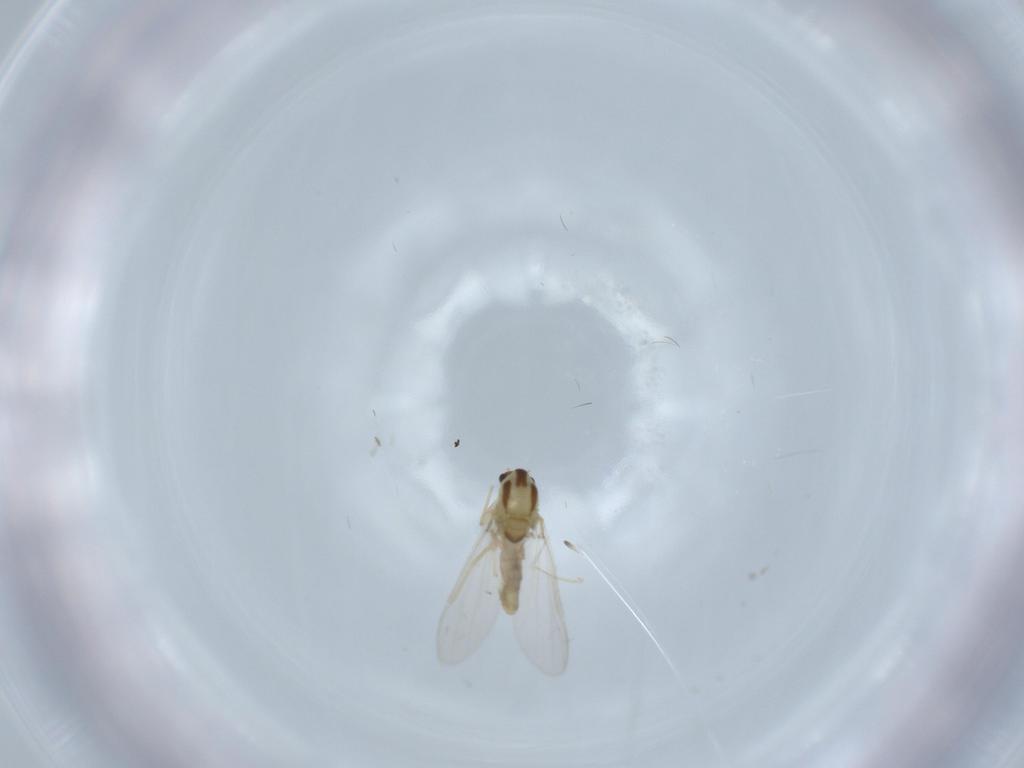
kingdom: Animalia
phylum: Arthropoda
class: Insecta
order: Diptera
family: Chironomidae
